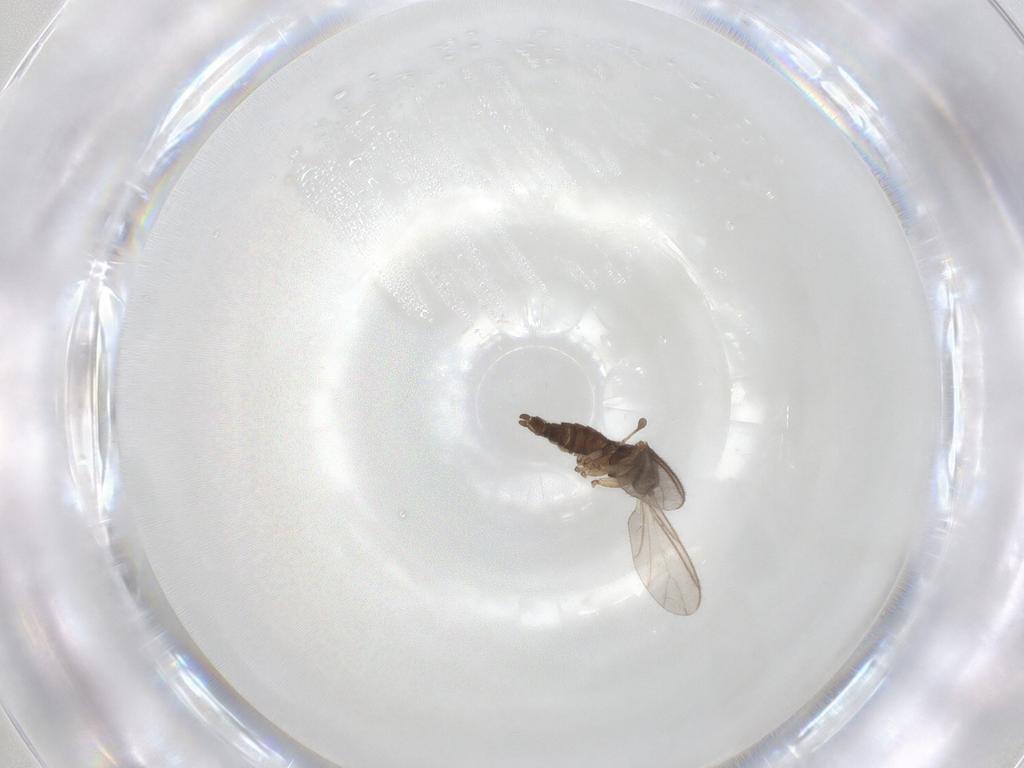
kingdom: Animalia
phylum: Arthropoda
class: Insecta
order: Diptera
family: Sciaridae
